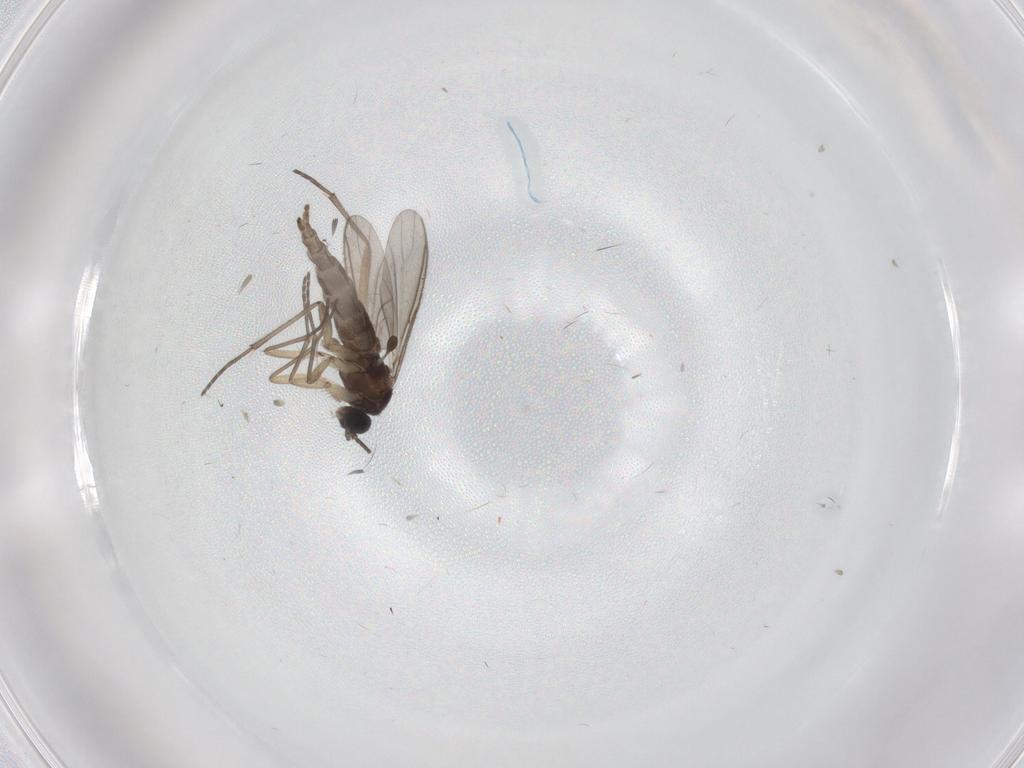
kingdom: Animalia
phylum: Arthropoda
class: Insecta
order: Diptera
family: Sciaridae
